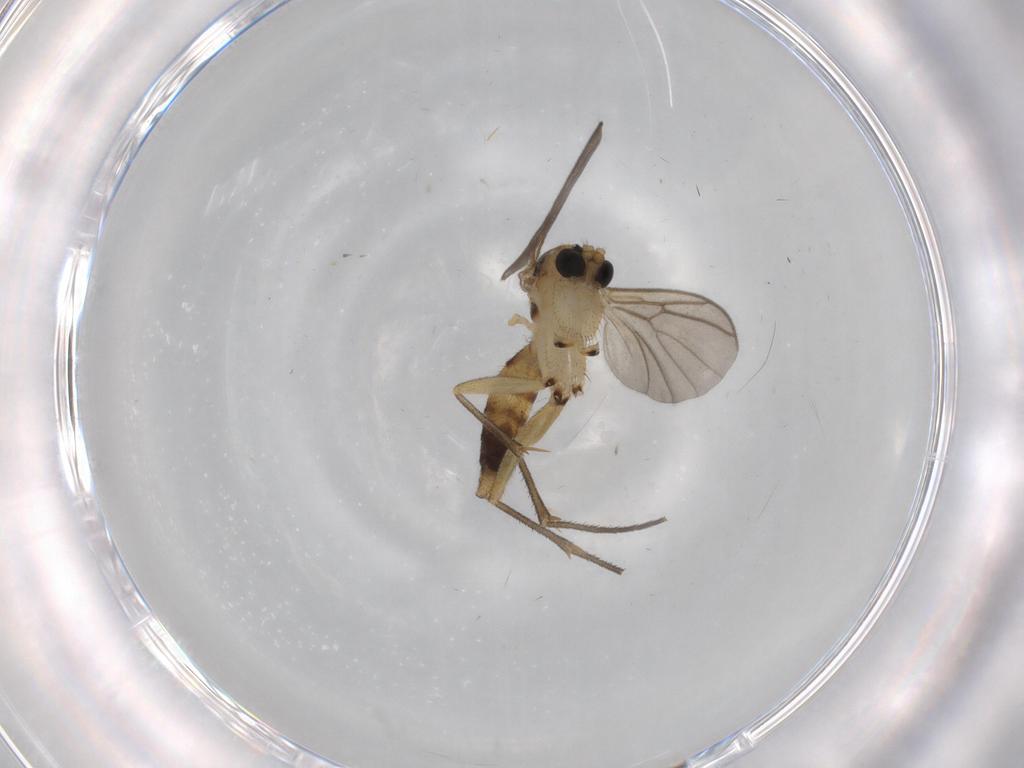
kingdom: Animalia
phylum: Arthropoda
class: Insecta
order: Diptera
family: Mycetophilidae
